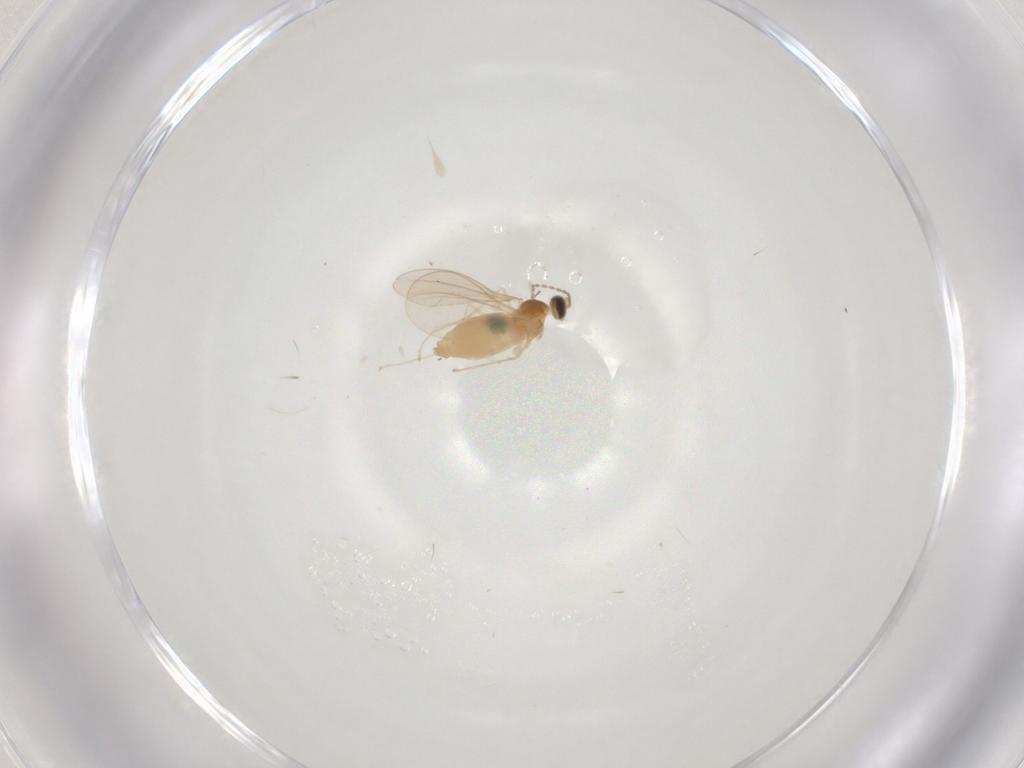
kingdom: Animalia
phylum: Arthropoda
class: Insecta
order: Diptera
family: Cecidomyiidae
